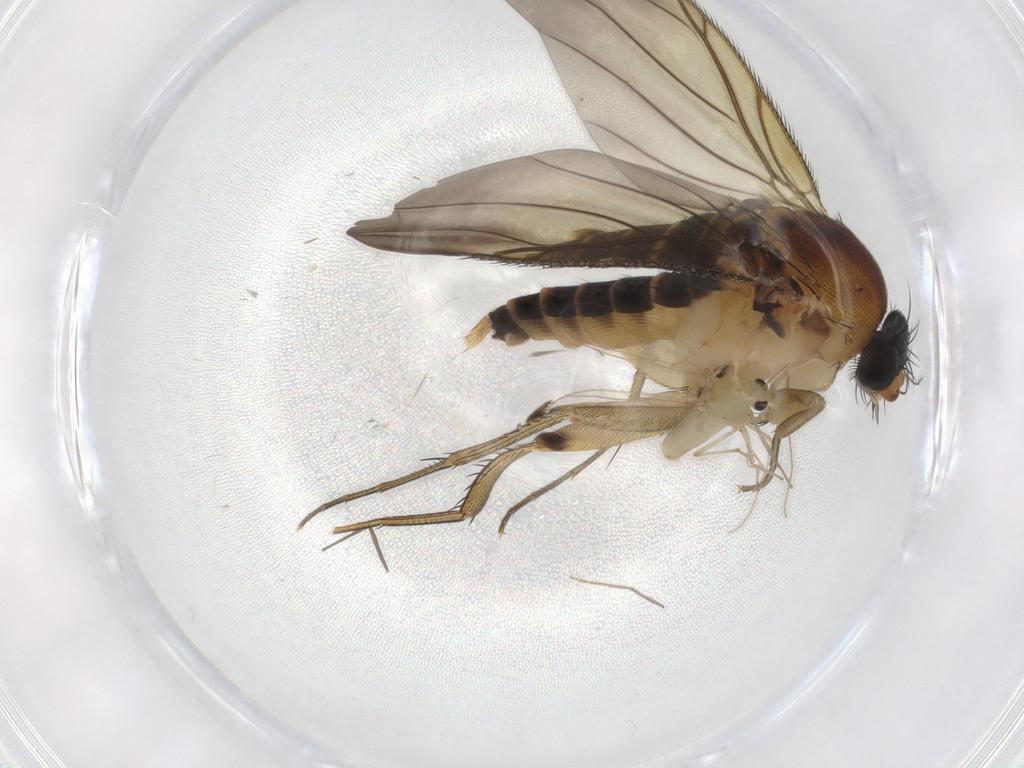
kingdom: Animalia
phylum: Arthropoda
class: Insecta
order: Diptera
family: Phoridae
